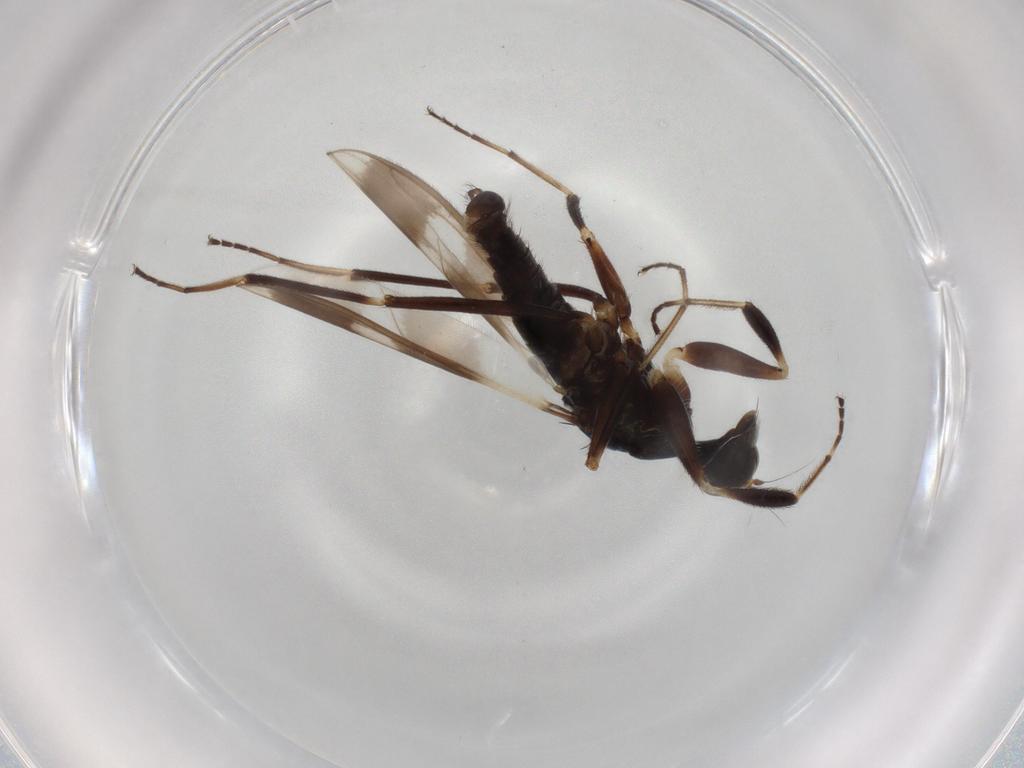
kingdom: Animalia
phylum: Arthropoda
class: Insecta
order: Diptera
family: Hybotidae
